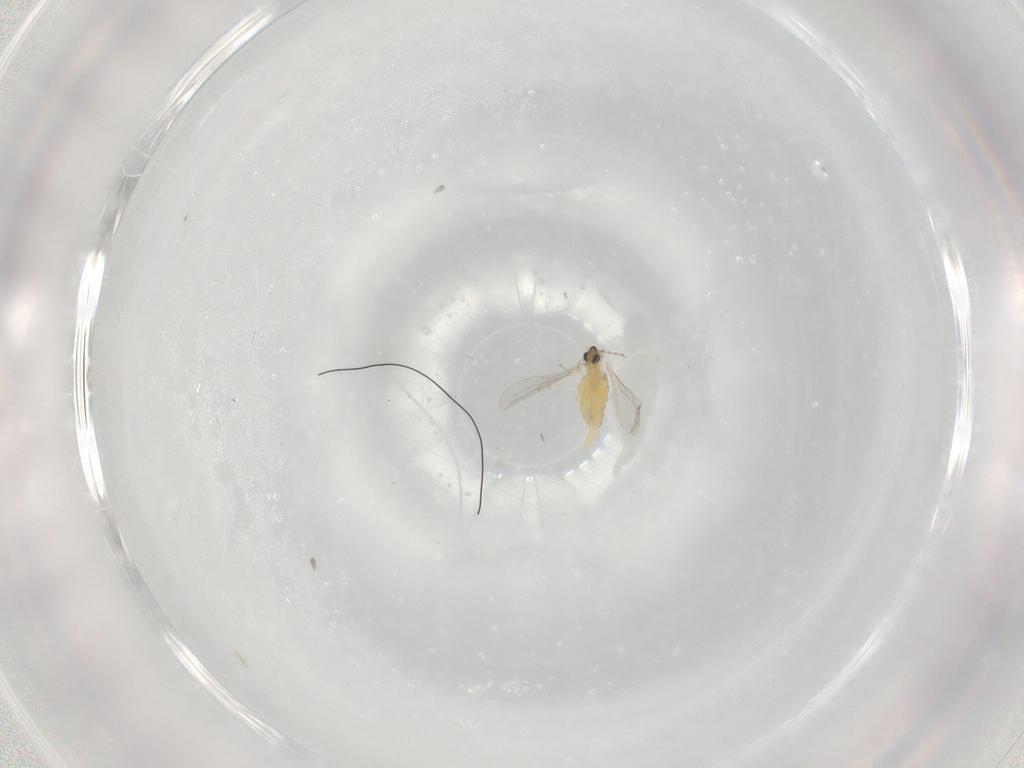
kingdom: Animalia
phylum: Arthropoda
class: Insecta
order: Diptera
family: Cecidomyiidae
